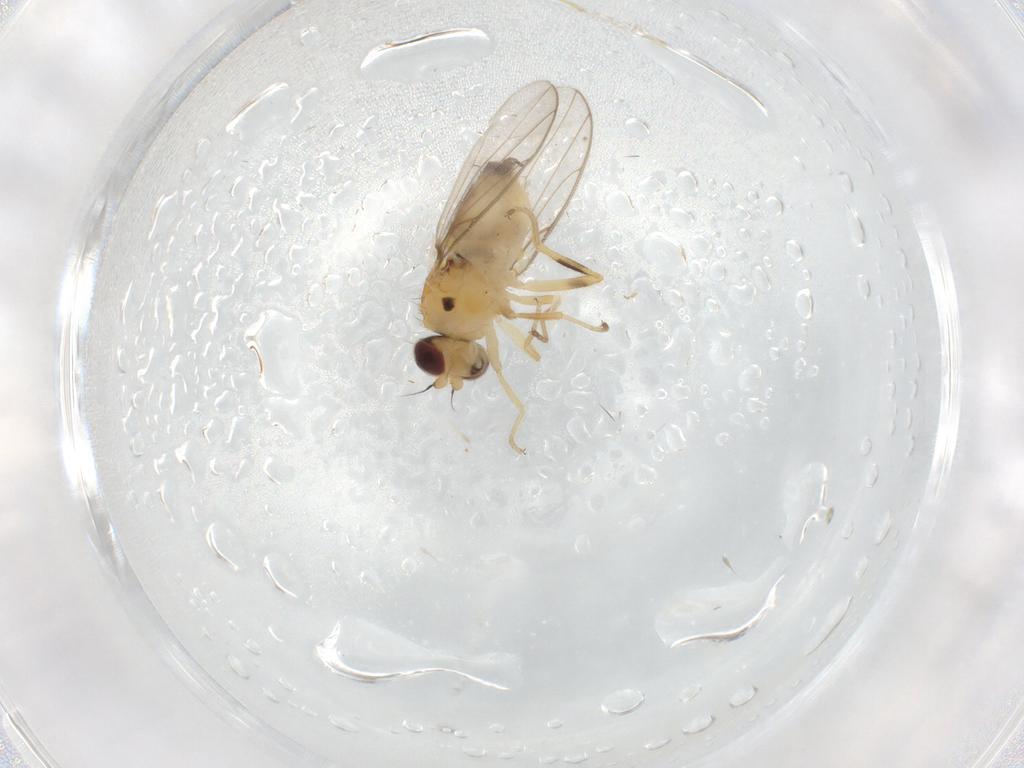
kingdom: Animalia
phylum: Arthropoda
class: Insecta
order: Diptera
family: Chloropidae
